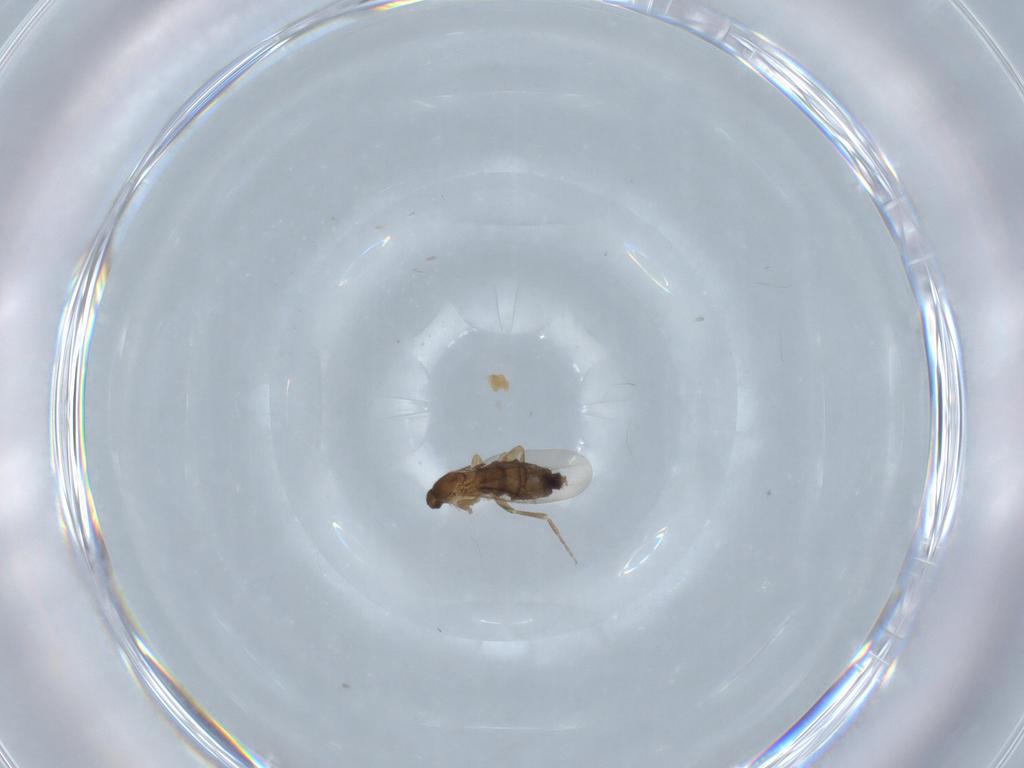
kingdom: Animalia
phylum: Arthropoda
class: Insecta
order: Diptera
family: Phoridae
